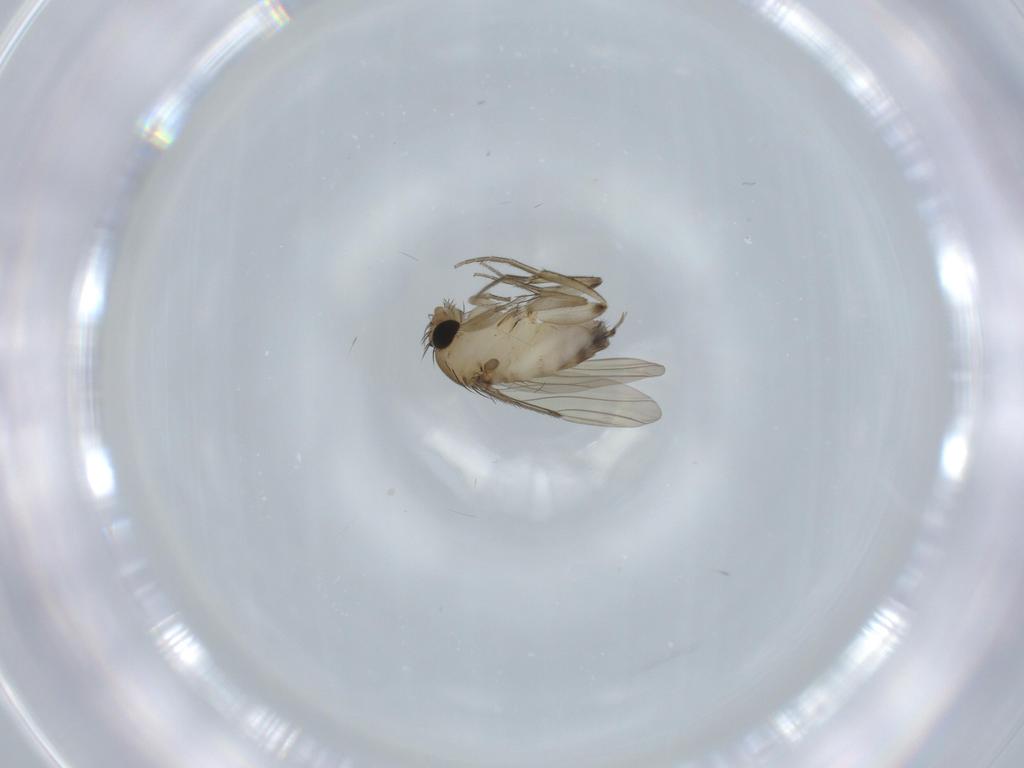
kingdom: Animalia
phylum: Arthropoda
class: Insecta
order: Diptera
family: Phoridae
